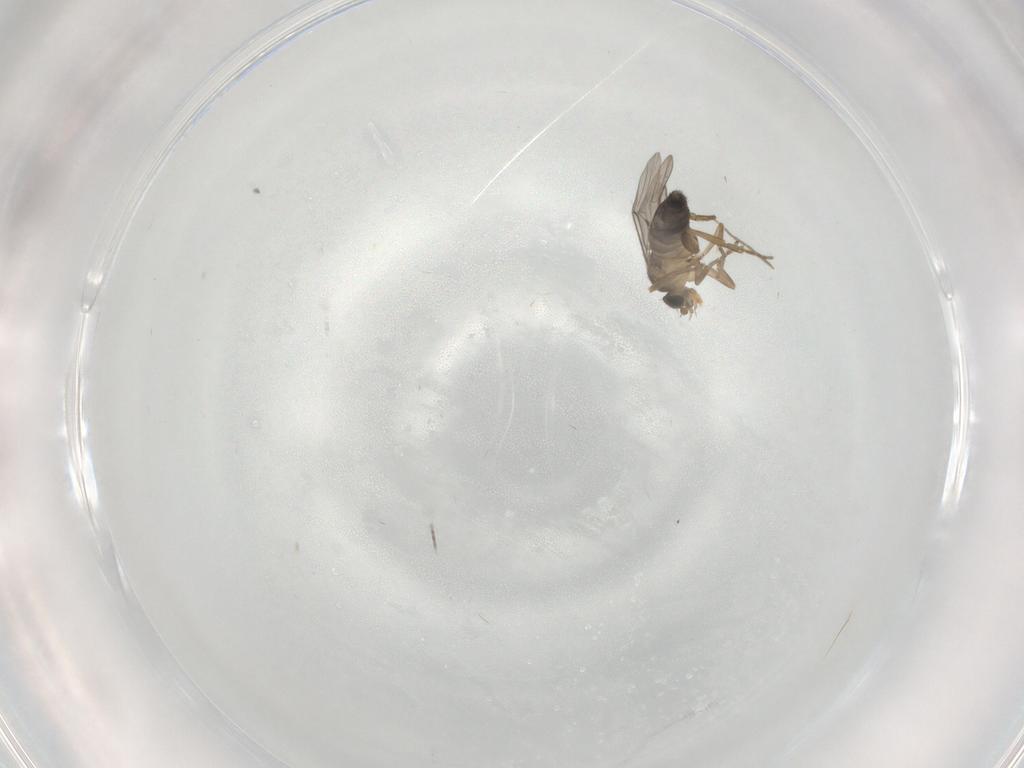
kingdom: Animalia
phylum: Arthropoda
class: Insecta
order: Diptera
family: Phoridae
